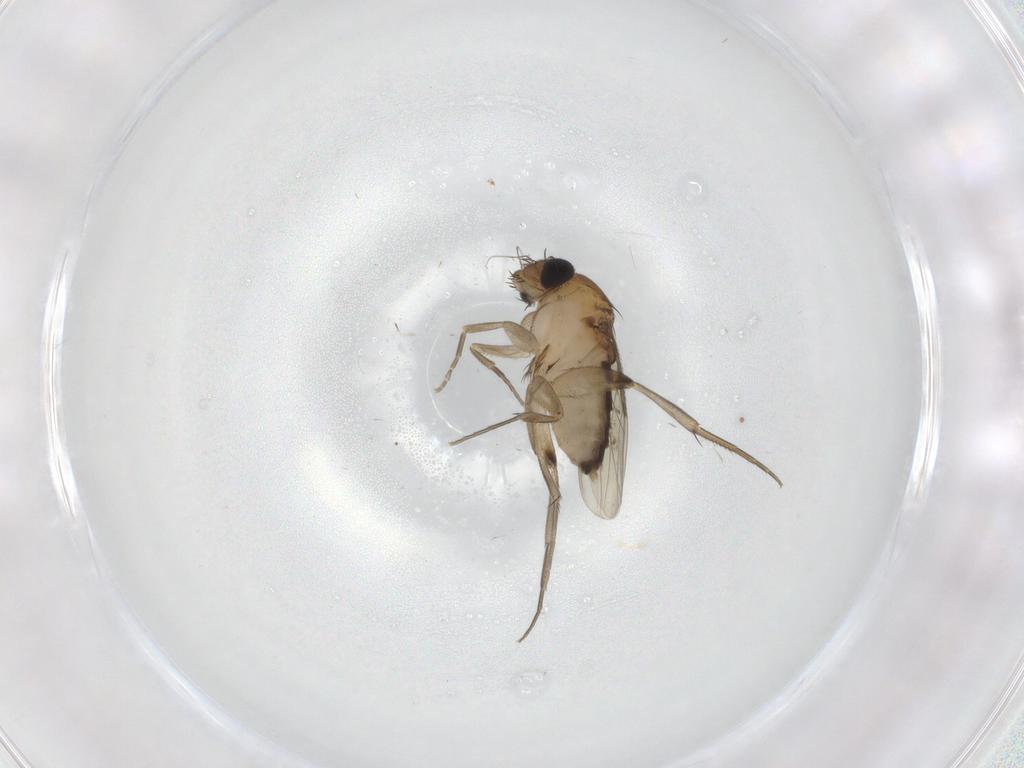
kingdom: Animalia
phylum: Arthropoda
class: Insecta
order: Diptera
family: Phoridae
